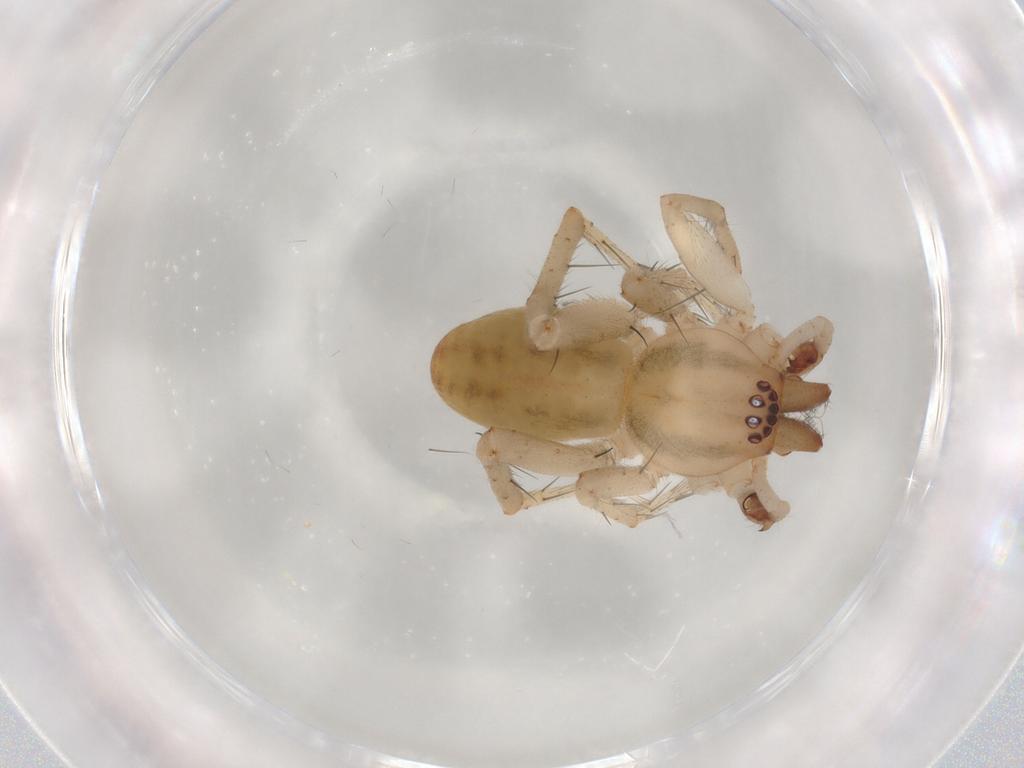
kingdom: Animalia
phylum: Arthropoda
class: Arachnida
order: Araneae
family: Anyphaenidae
